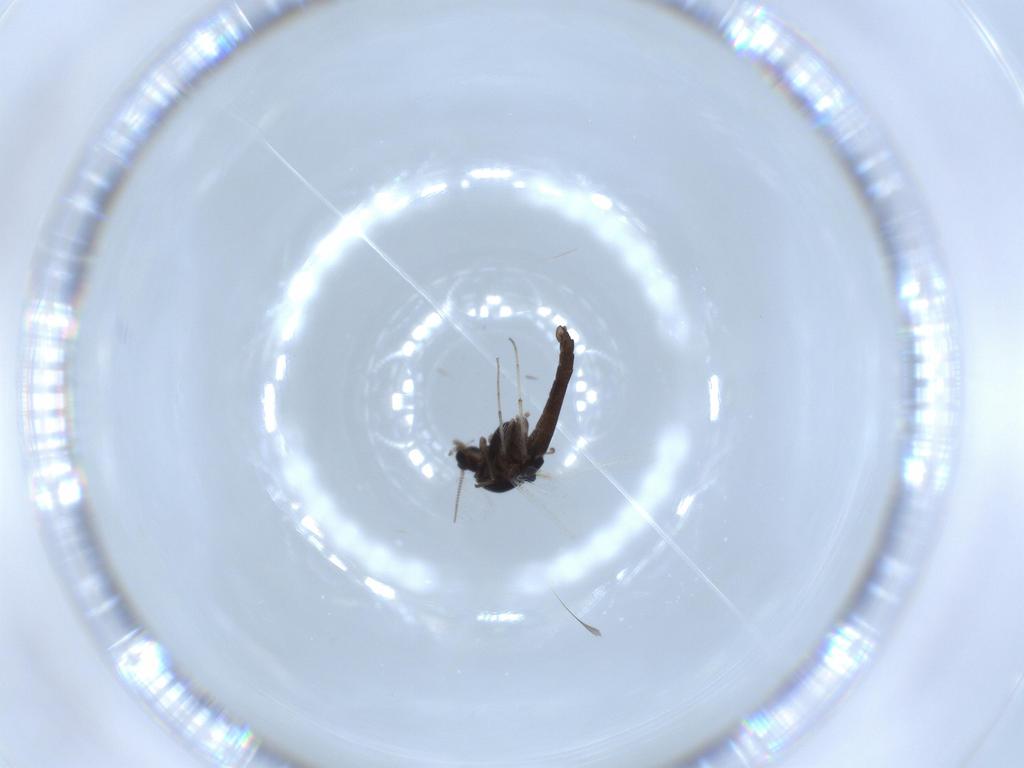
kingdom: Animalia
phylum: Arthropoda
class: Insecta
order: Diptera
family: Chironomidae
